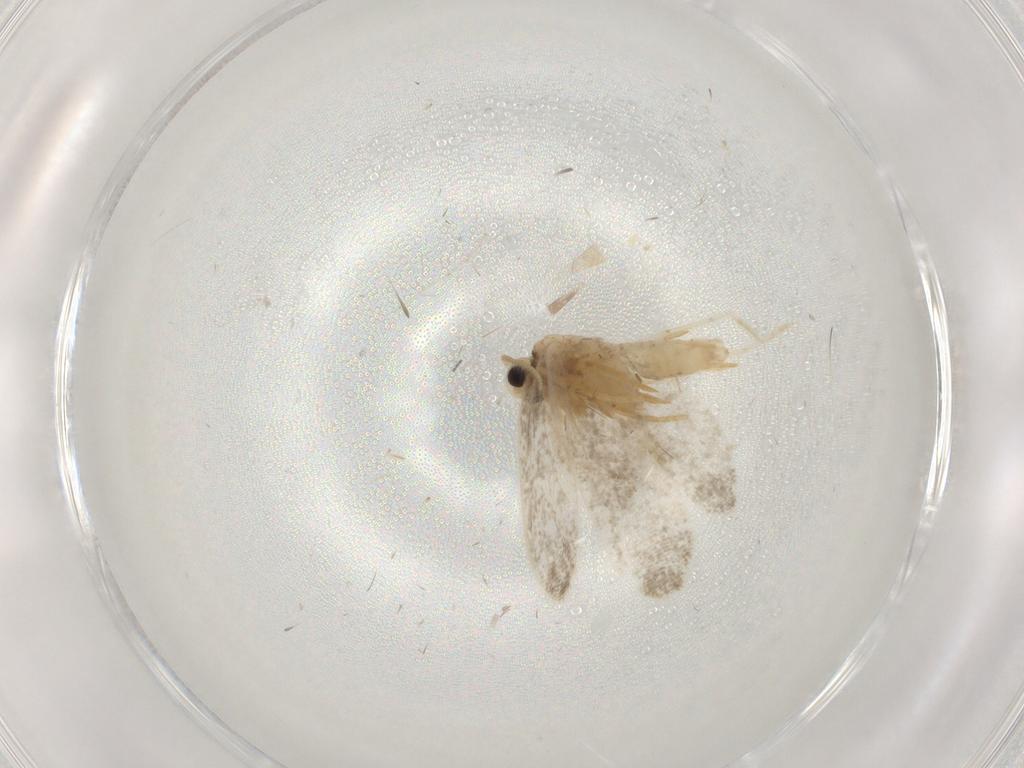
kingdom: Animalia
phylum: Arthropoda
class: Insecta
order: Lepidoptera
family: Psychidae
